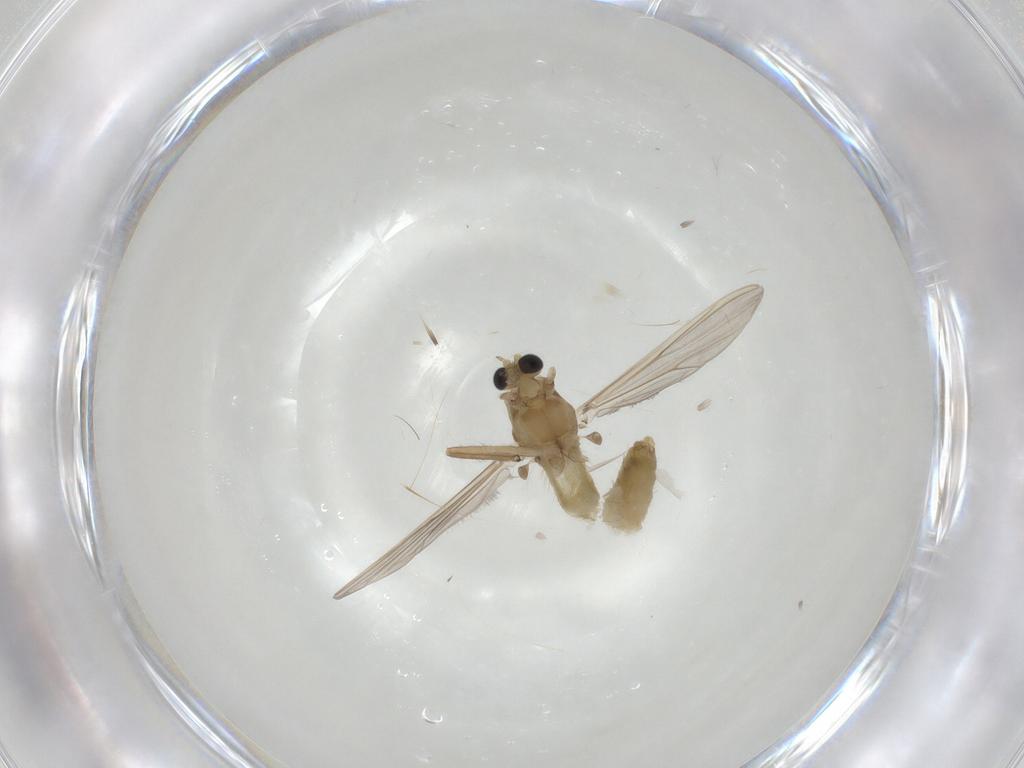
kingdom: Animalia
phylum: Arthropoda
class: Insecta
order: Diptera
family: Chironomidae
